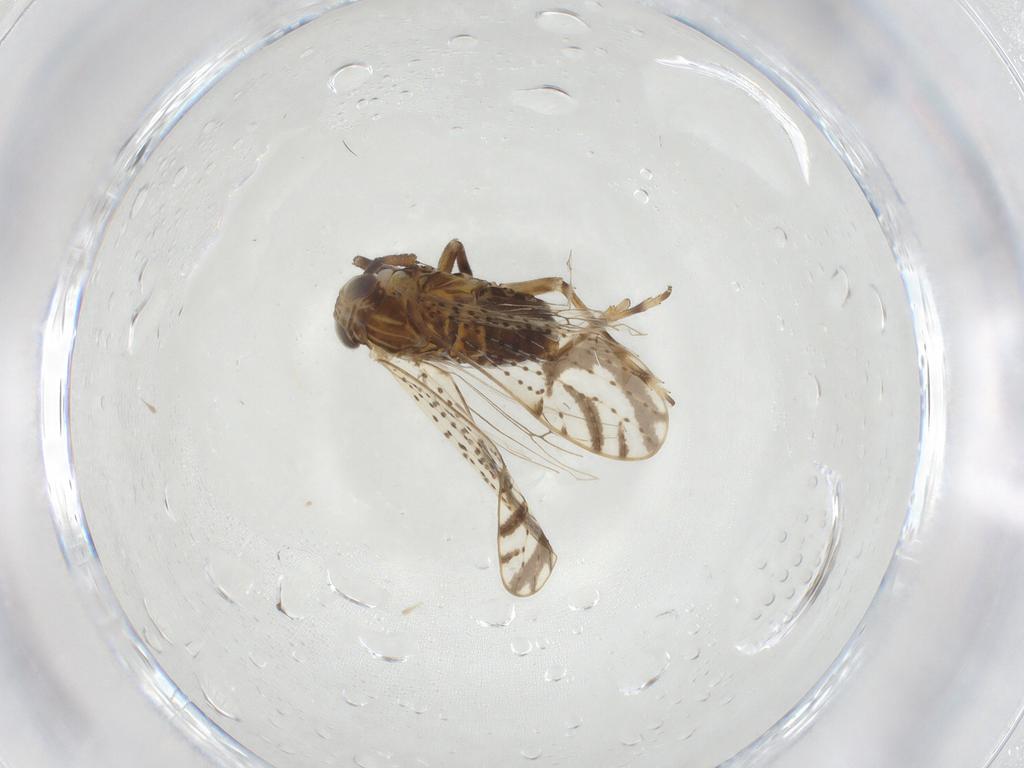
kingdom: Animalia
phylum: Arthropoda
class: Insecta
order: Hemiptera
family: Delphacidae
